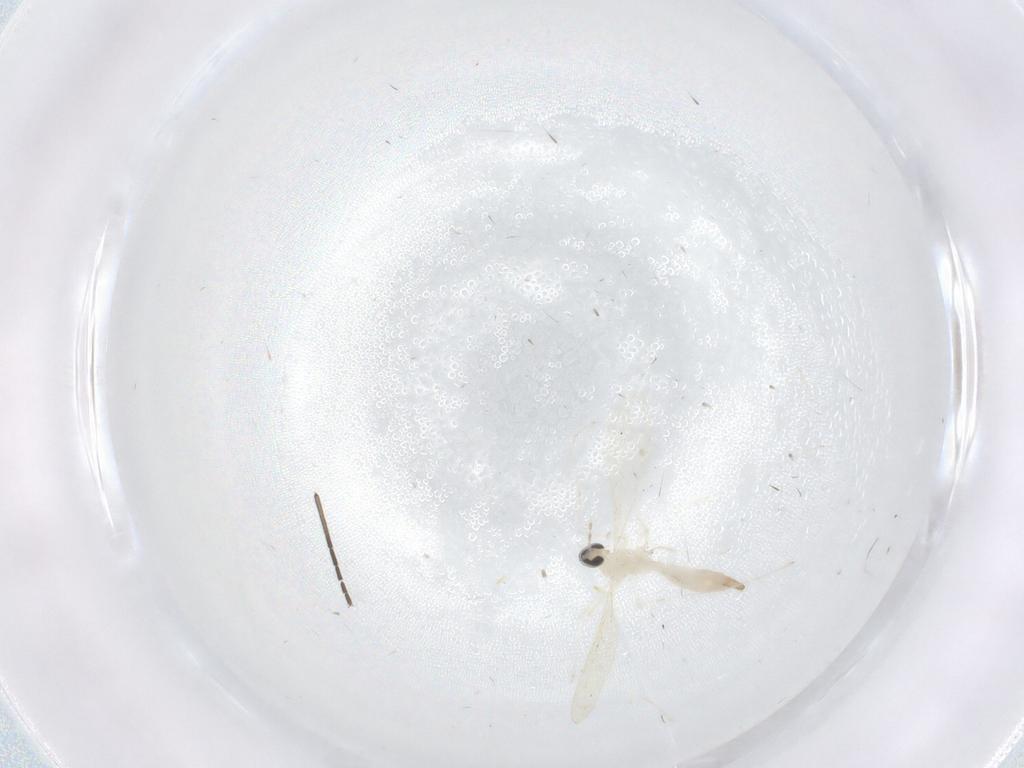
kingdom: Animalia
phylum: Arthropoda
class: Insecta
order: Diptera
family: Cecidomyiidae
